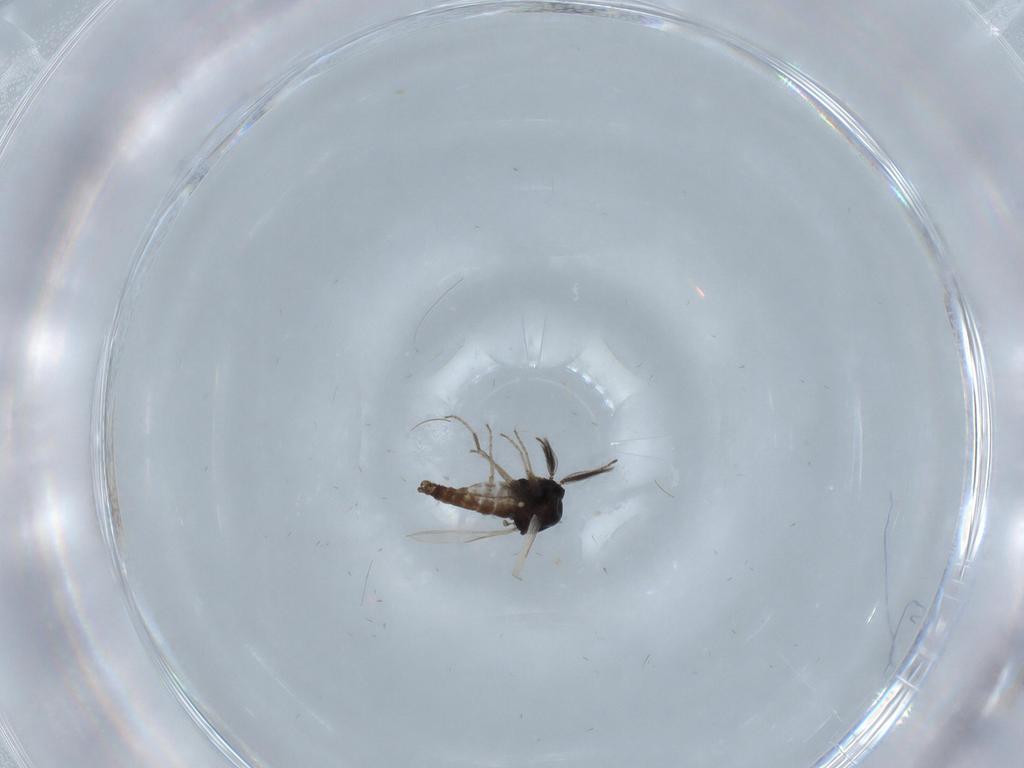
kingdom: Animalia
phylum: Arthropoda
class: Insecta
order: Diptera
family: Ceratopogonidae
